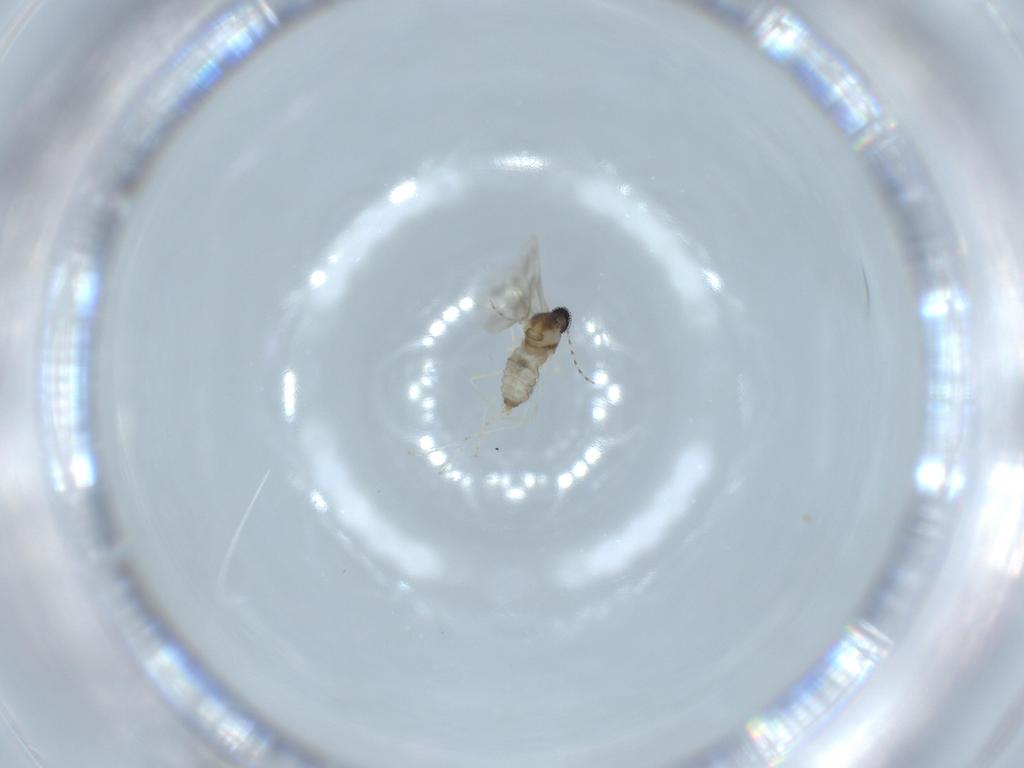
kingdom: Animalia
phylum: Arthropoda
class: Insecta
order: Diptera
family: Cecidomyiidae
